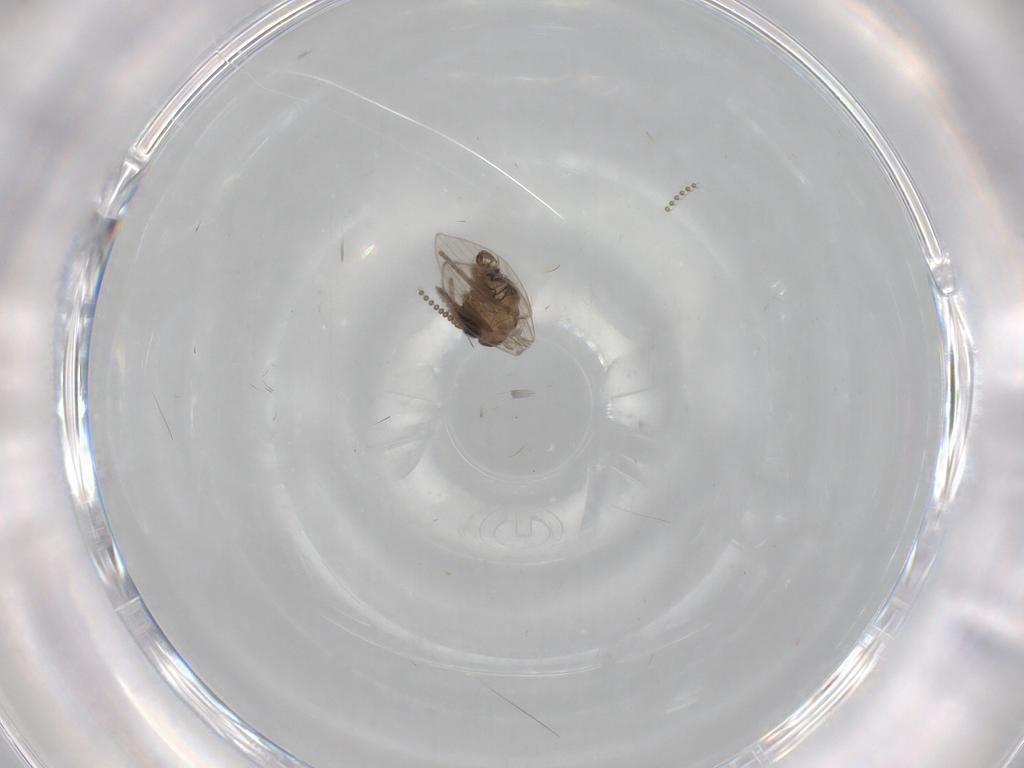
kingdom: Animalia
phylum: Arthropoda
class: Insecta
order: Diptera
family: Psychodidae
